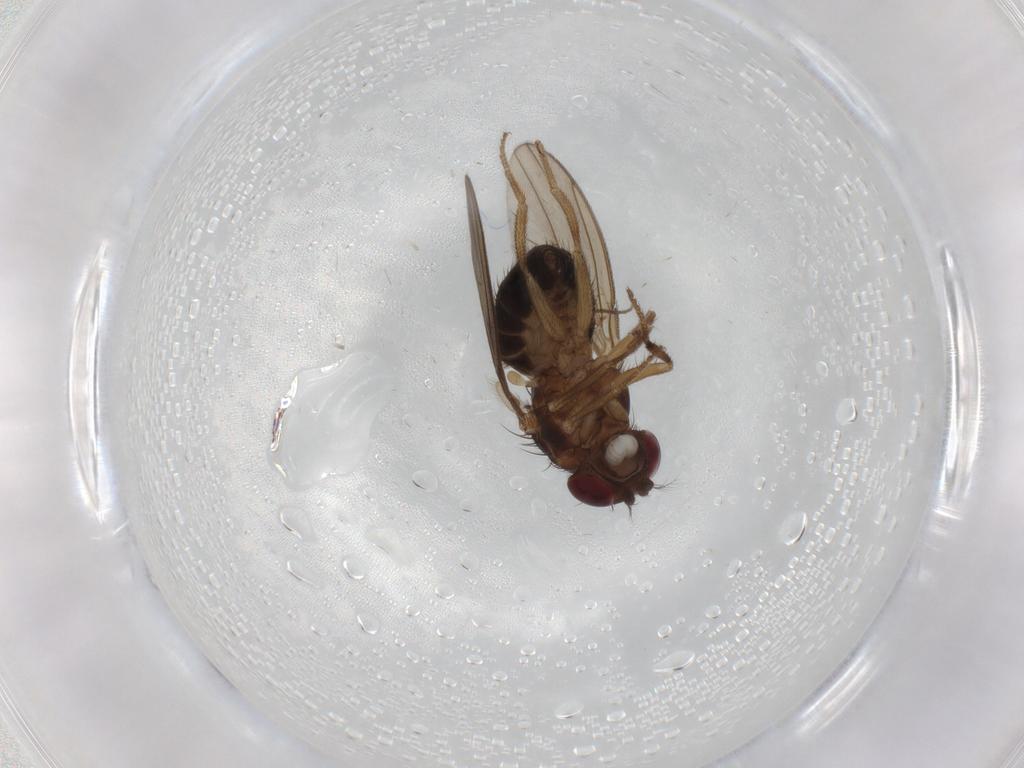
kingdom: Animalia
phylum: Arthropoda
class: Insecta
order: Diptera
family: Drosophilidae
